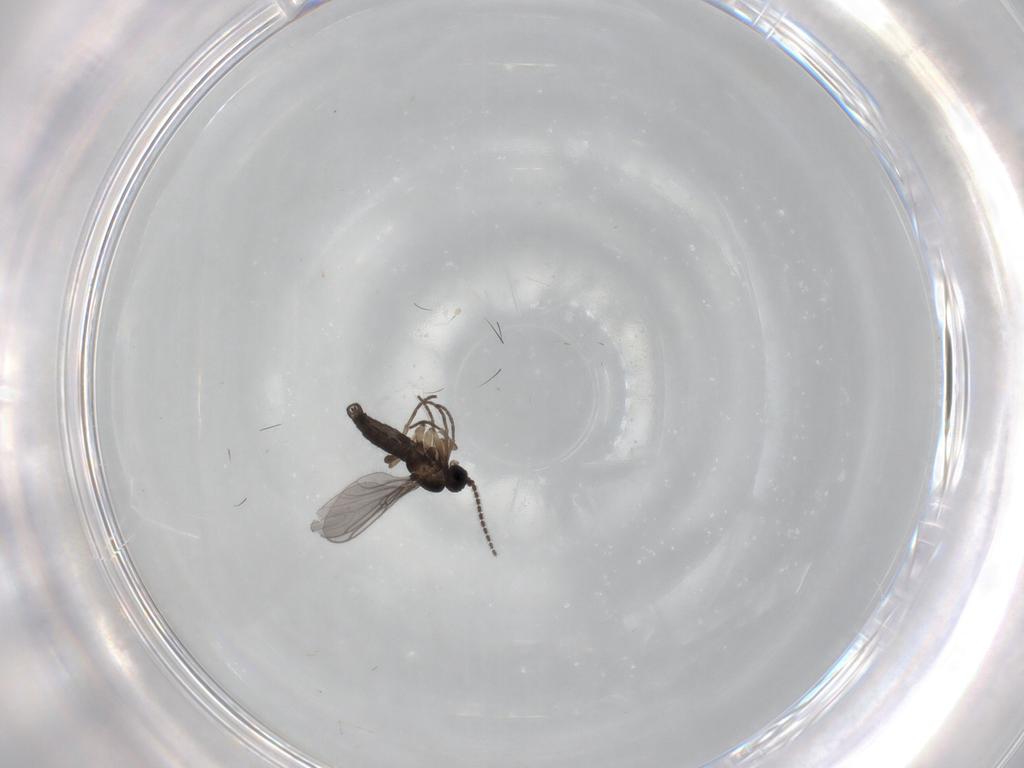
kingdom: Animalia
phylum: Arthropoda
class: Insecta
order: Diptera
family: Cecidomyiidae
